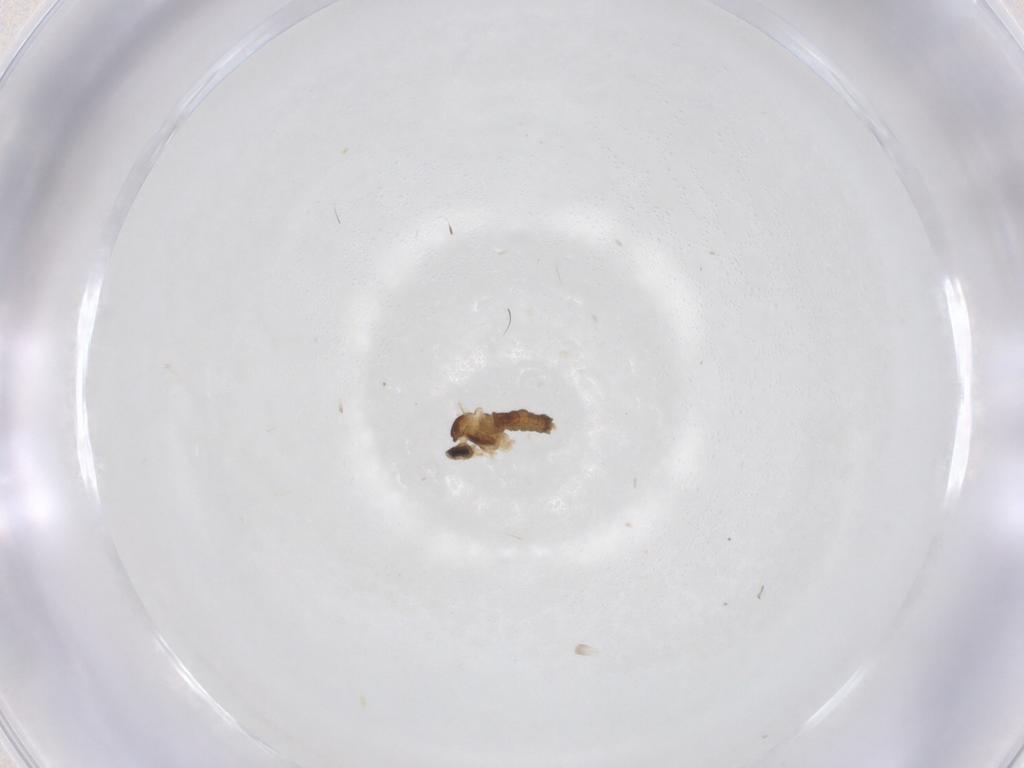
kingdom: Animalia
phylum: Arthropoda
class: Insecta
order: Diptera
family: Cecidomyiidae
